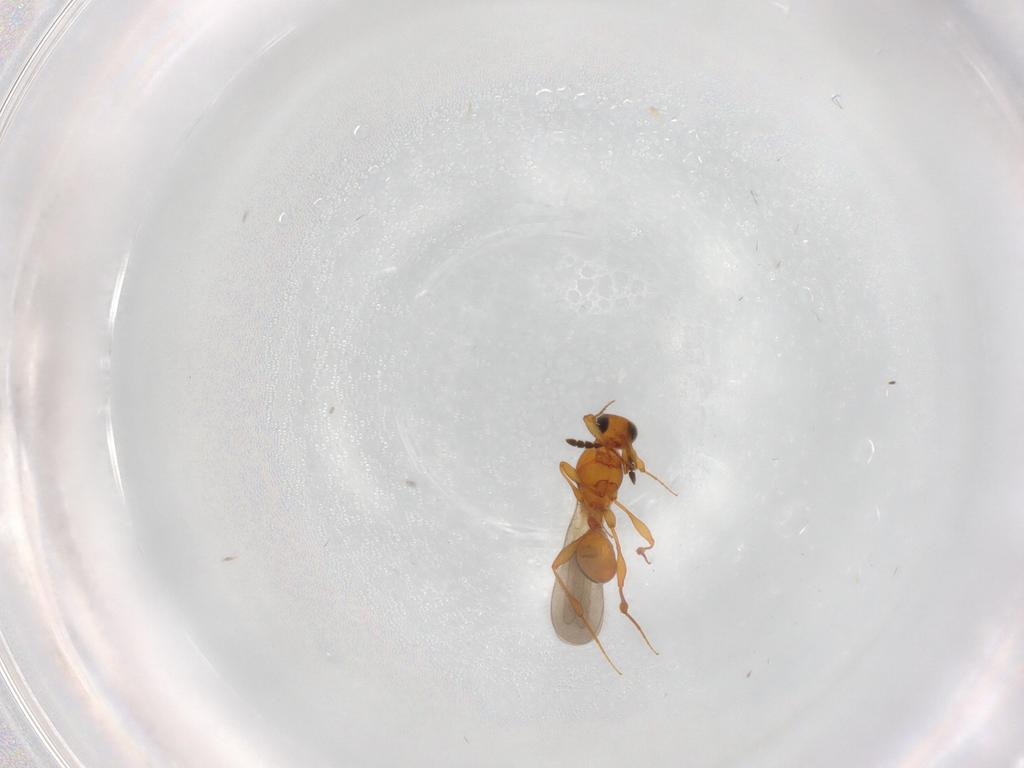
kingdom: Animalia
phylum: Arthropoda
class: Insecta
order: Hymenoptera
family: Platygastridae
